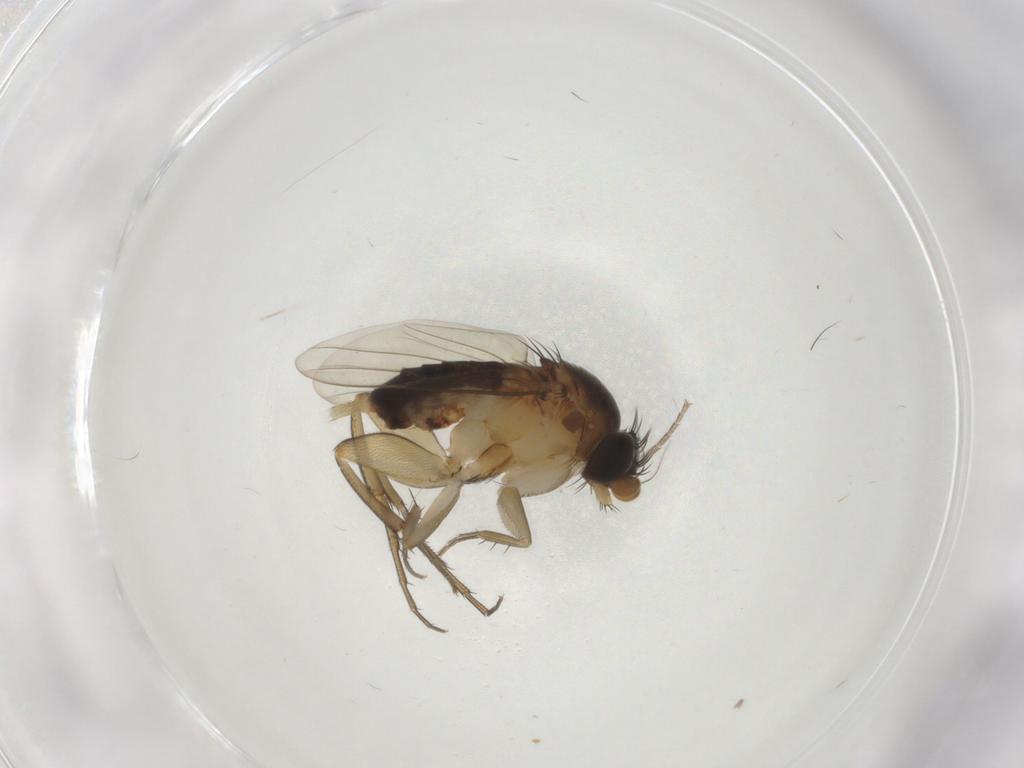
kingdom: Animalia
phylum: Arthropoda
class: Insecta
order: Diptera
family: Phoridae
